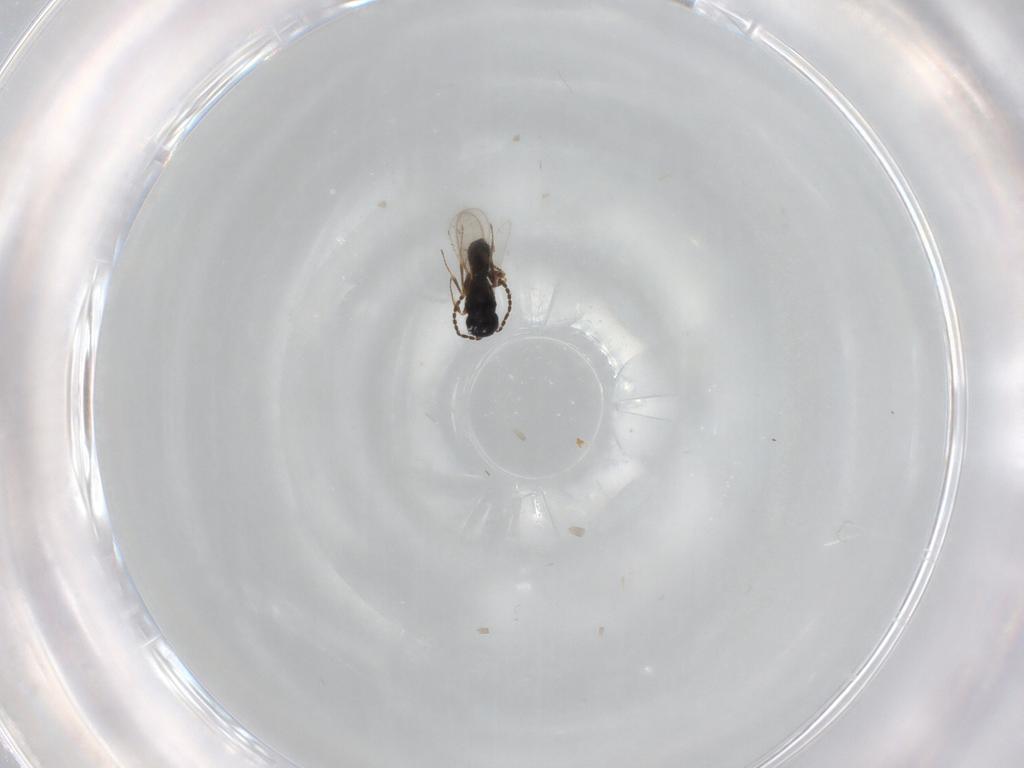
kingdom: Animalia
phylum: Arthropoda
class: Insecta
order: Hymenoptera
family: Scelionidae
